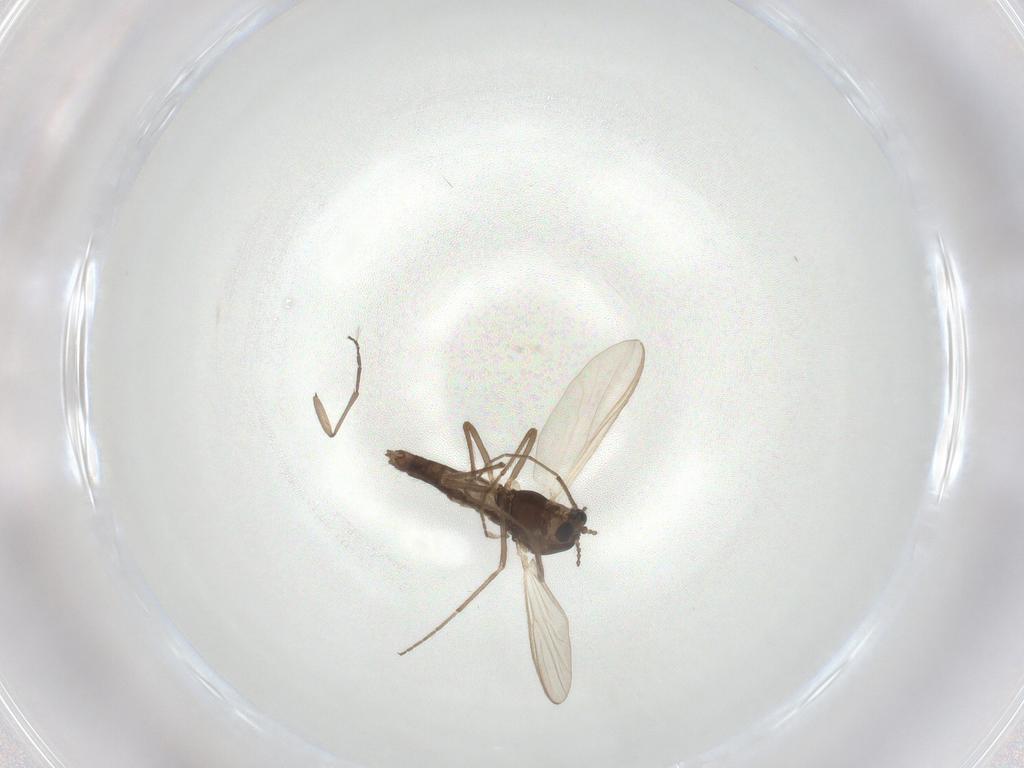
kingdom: Animalia
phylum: Arthropoda
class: Insecta
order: Diptera
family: Chironomidae
